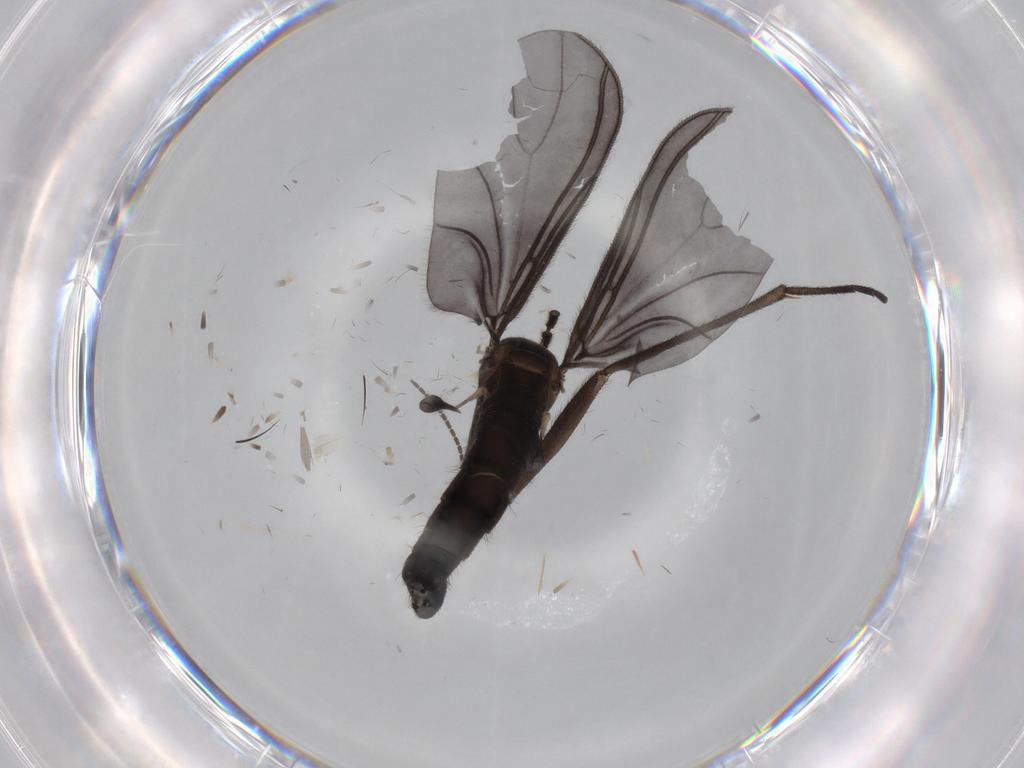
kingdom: Animalia
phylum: Arthropoda
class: Insecta
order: Diptera
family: Sciaridae
